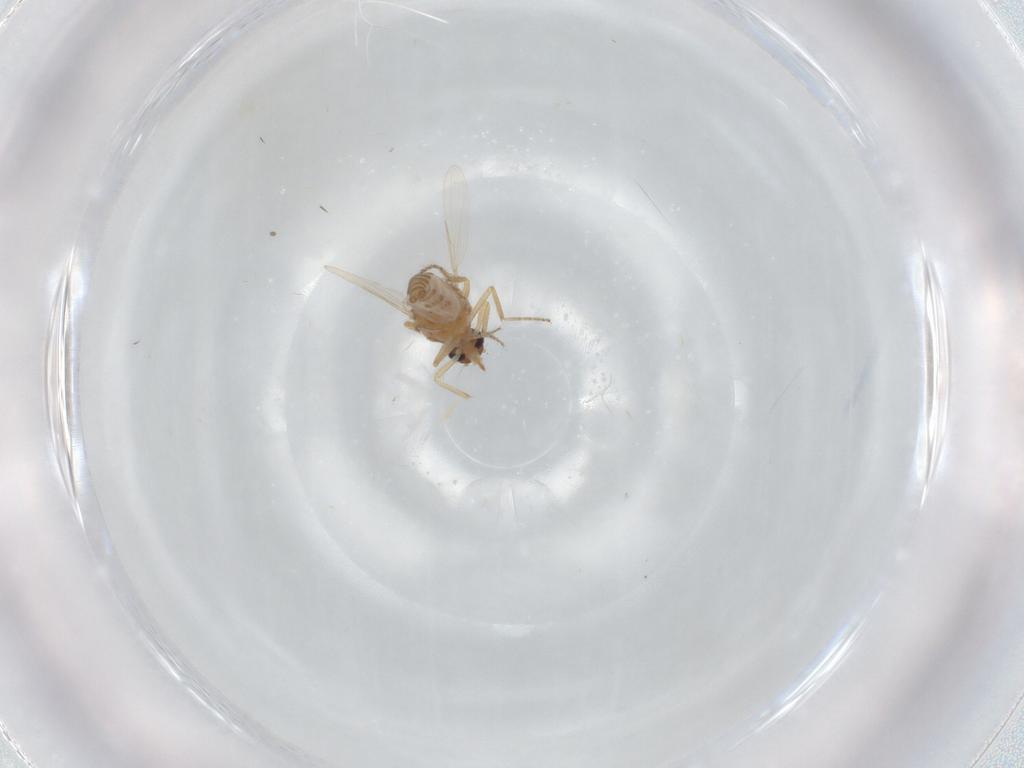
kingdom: Animalia
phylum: Arthropoda
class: Insecta
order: Diptera
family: Ceratopogonidae
